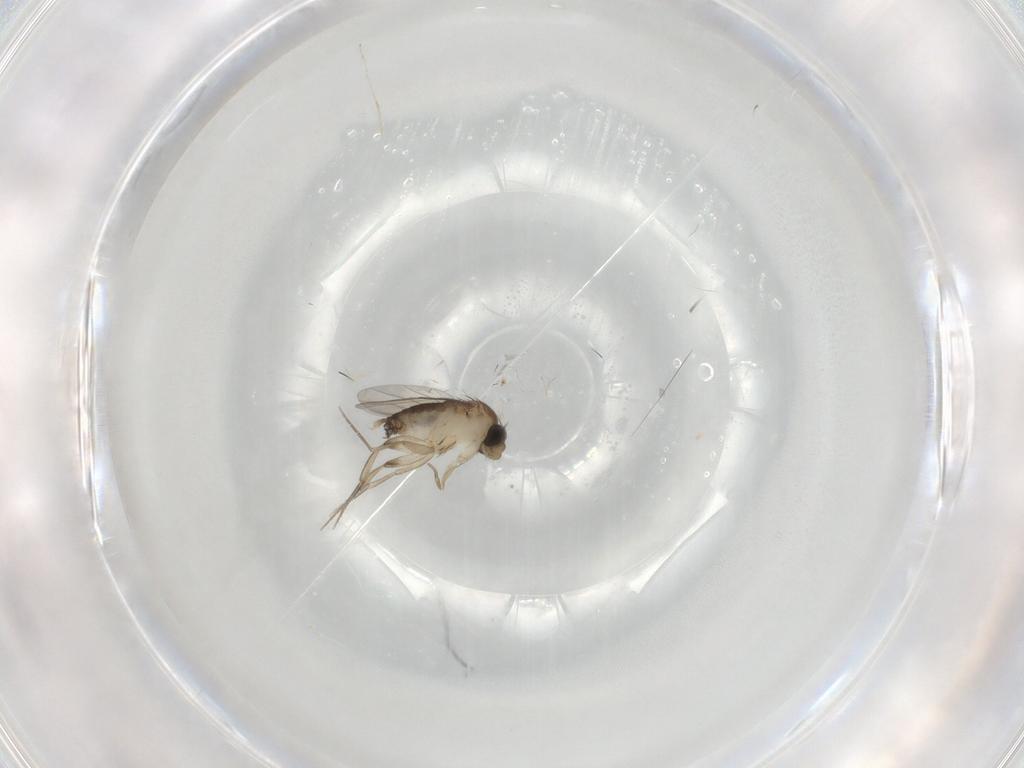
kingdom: Animalia
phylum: Arthropoda
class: Insecta
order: Diptera
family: Phoridae
